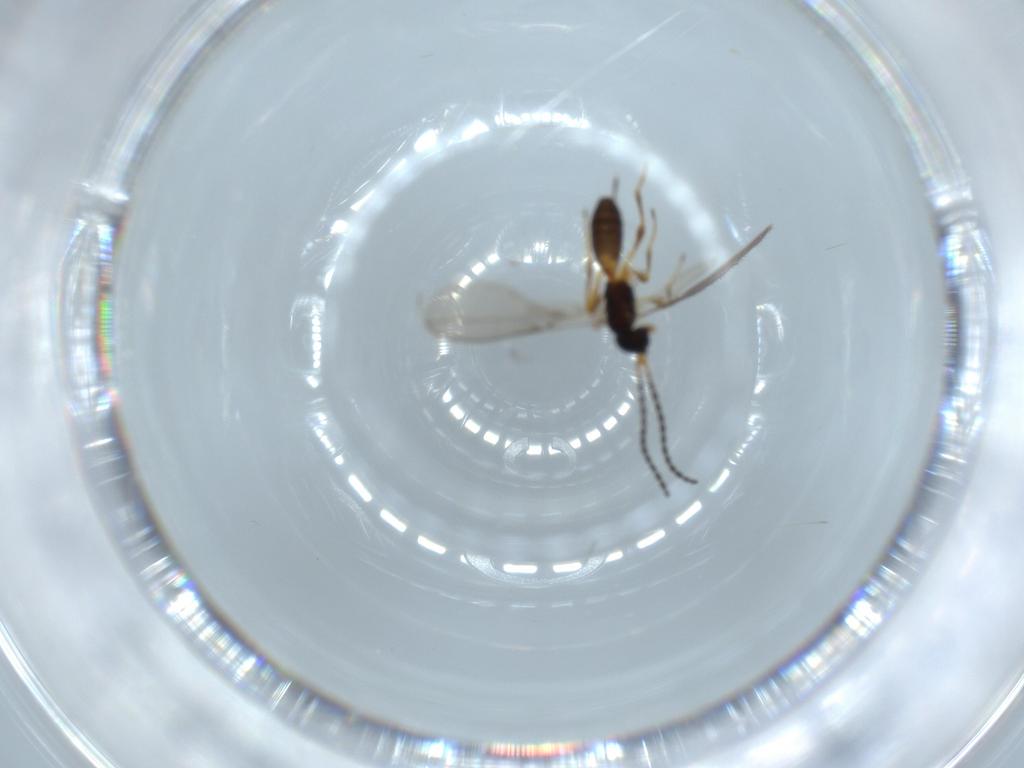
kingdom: Animalia
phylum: Arthropoda
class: Insecta
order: Hymenoptera
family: Braconidae
